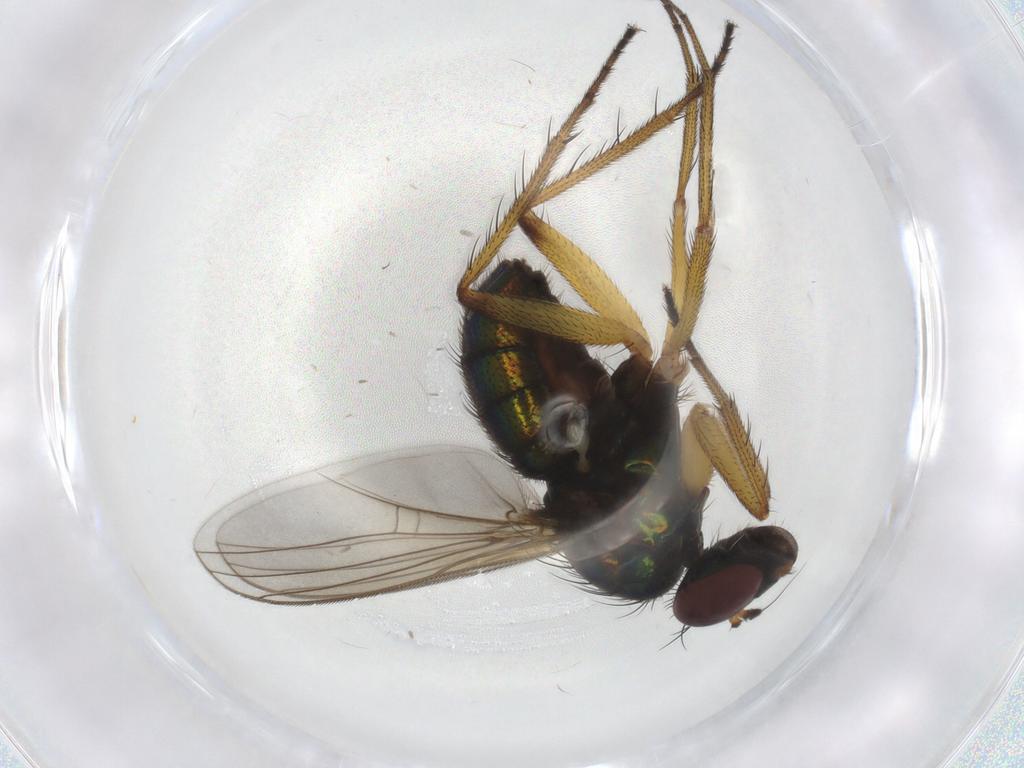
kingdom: Animalia
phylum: Arthropoda
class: Insecta
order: Diptera
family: Chironomidae
